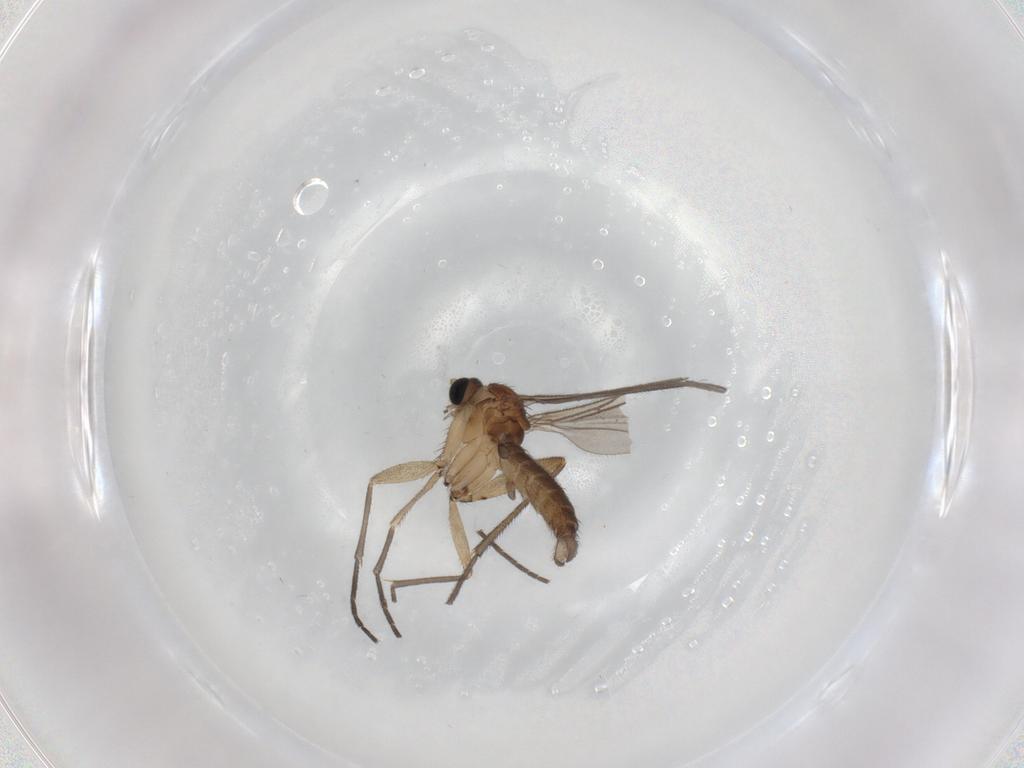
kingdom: Animalia
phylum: Arthropoda
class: Insecta
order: Diptera
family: Sciaridae
